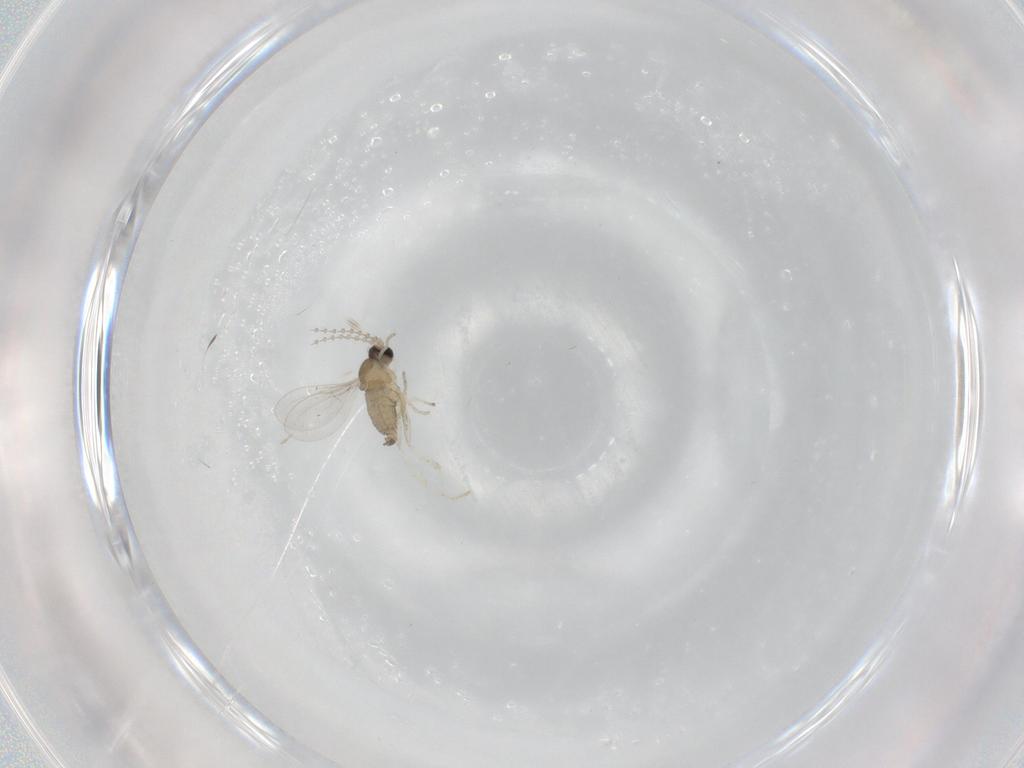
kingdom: Animalia
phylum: Arthropoda
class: Insecta
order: Diptera
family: Cecidomyiidae
